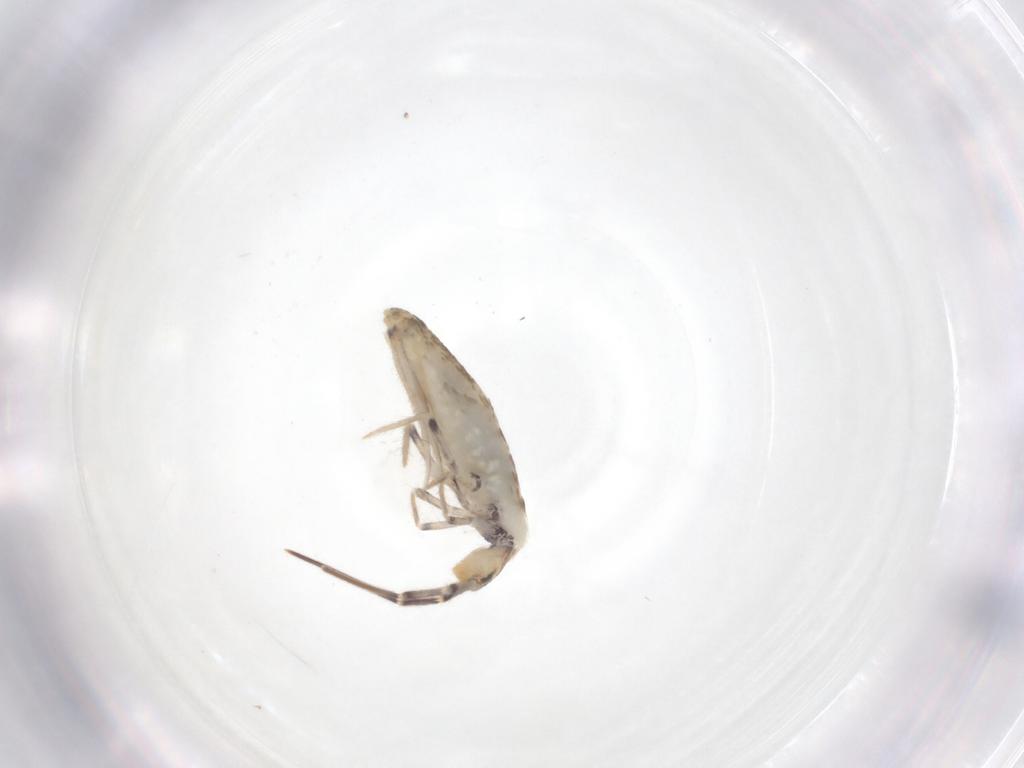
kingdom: Animalia
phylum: Arthropoda
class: Collembola
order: Entomobryomorpha
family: Entomobryidae
